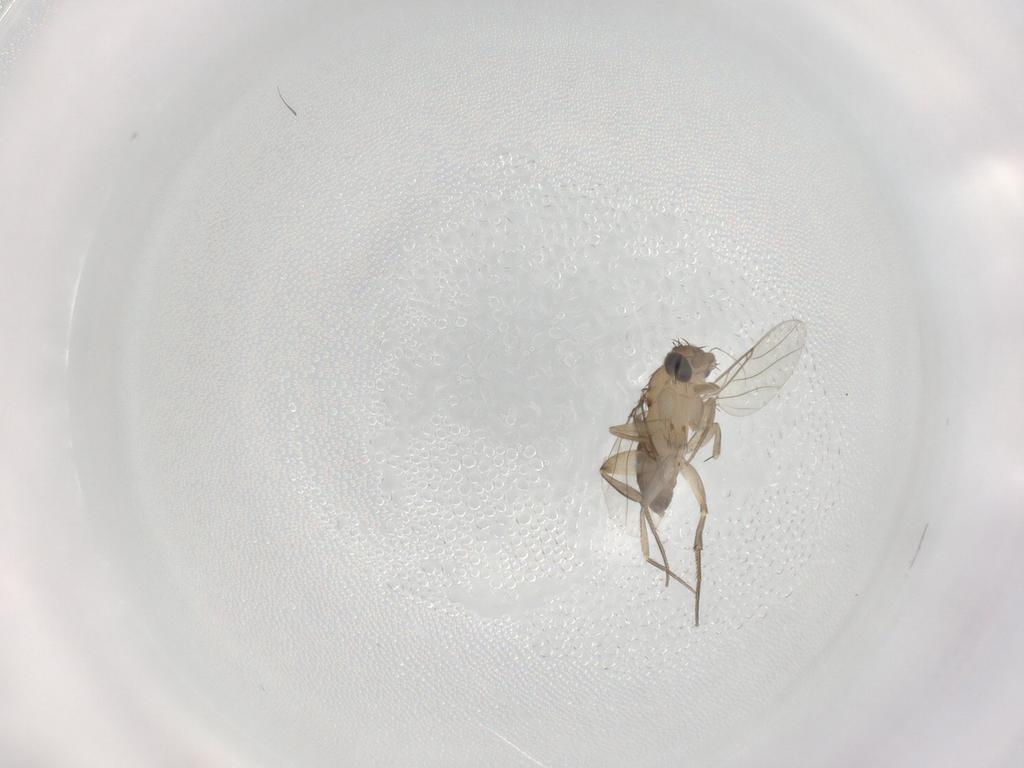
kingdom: Animalia
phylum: Arthropoda
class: Insecta
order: Diptera
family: Phoridae
